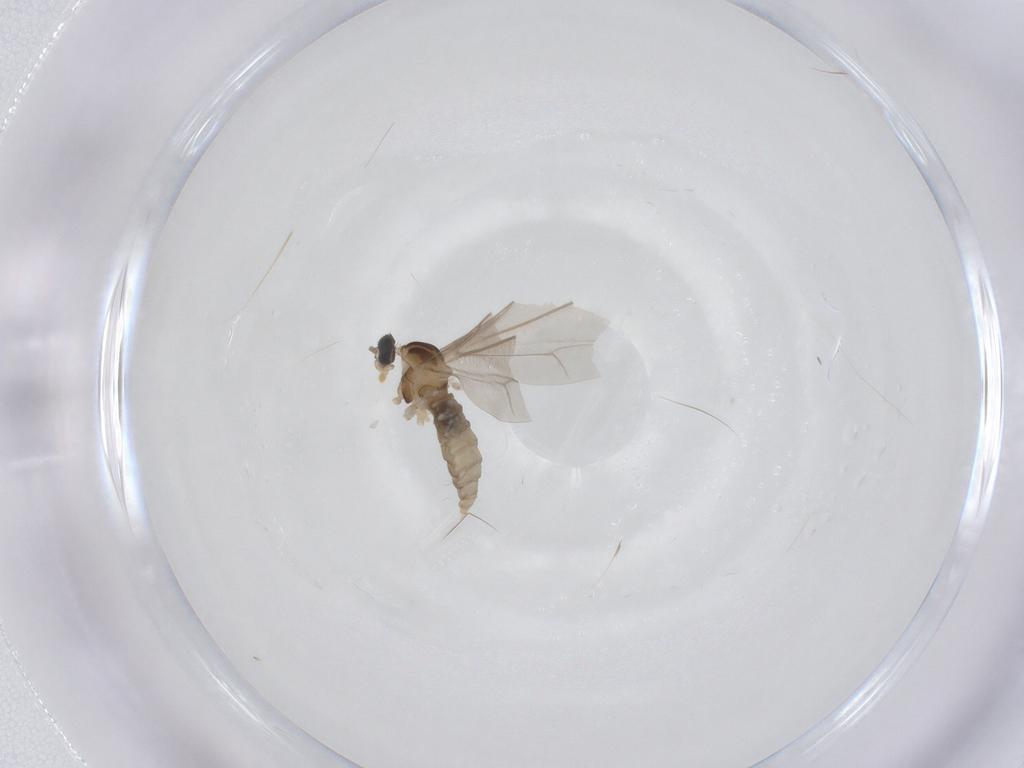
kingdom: Animalia
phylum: Arthropoda
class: Insecta
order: Diptera
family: Cecidomyiidae
